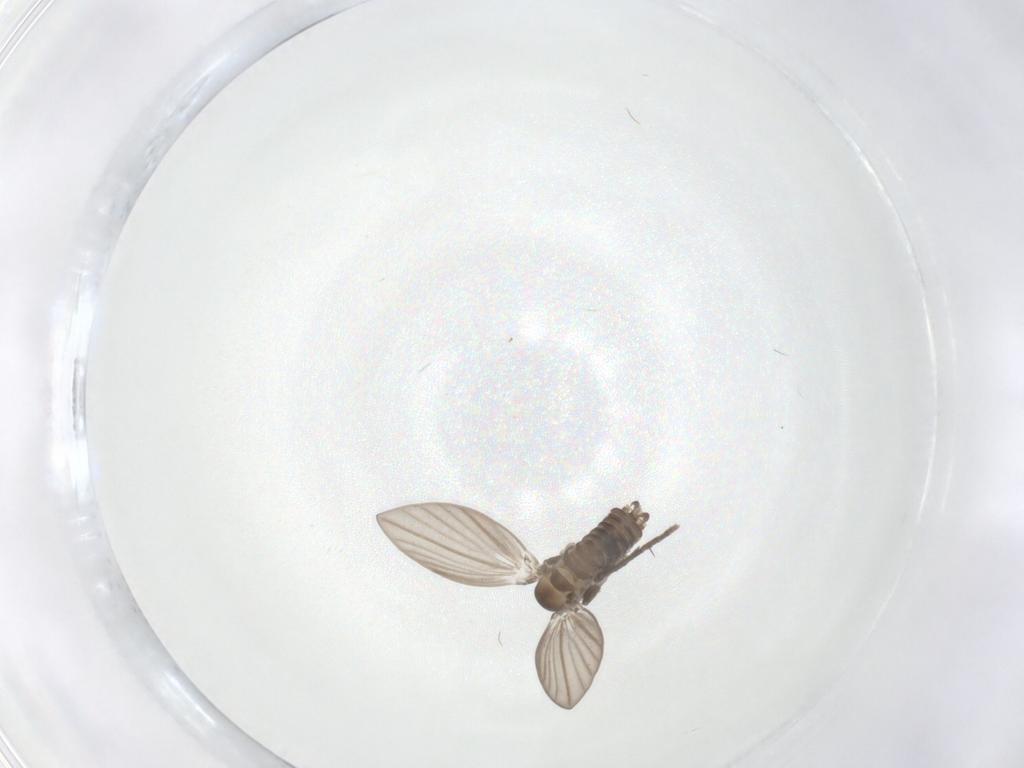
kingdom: Animalia
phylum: Arthropoda
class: Insecta
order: Diptera
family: Psychodidae
